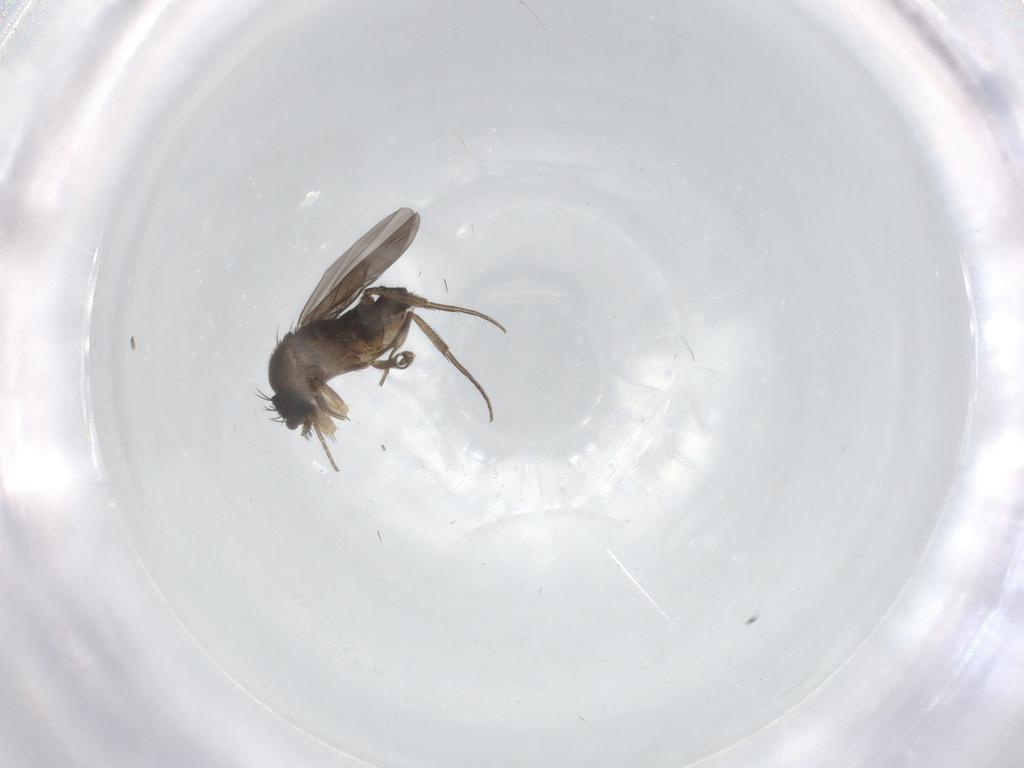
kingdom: Animalia
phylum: Arthropoda
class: Insecta
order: Diptera
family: Phoridae
